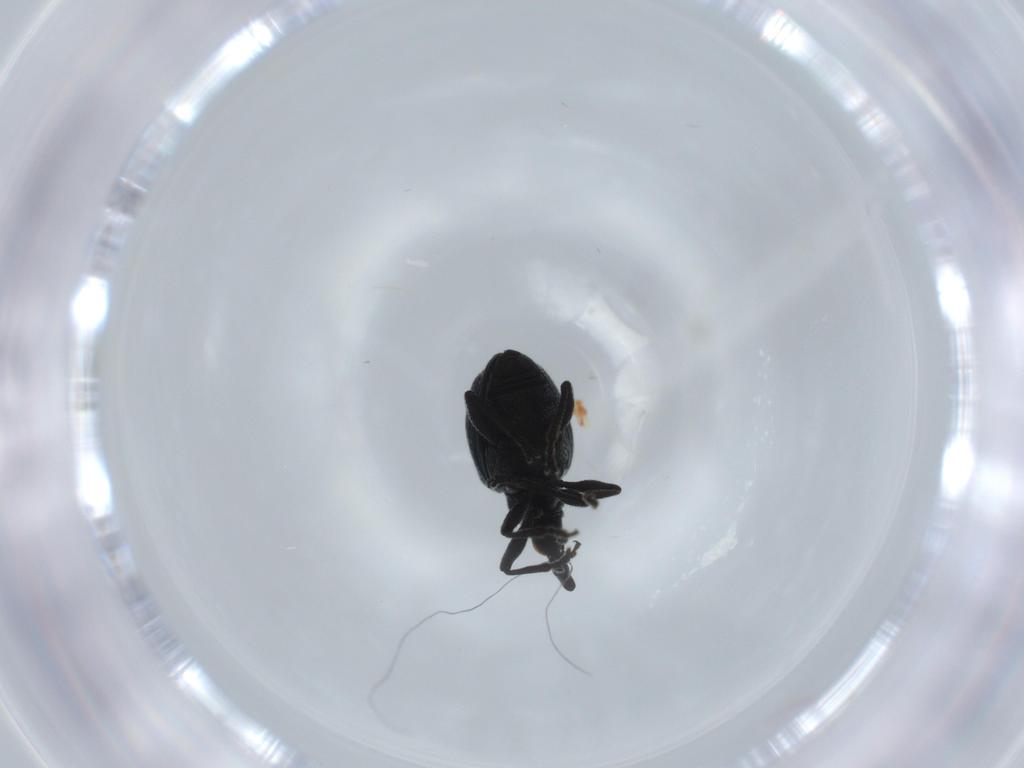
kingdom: Animalia
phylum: Arthropoda
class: Insecta
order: Coleoptera
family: Brentidae
